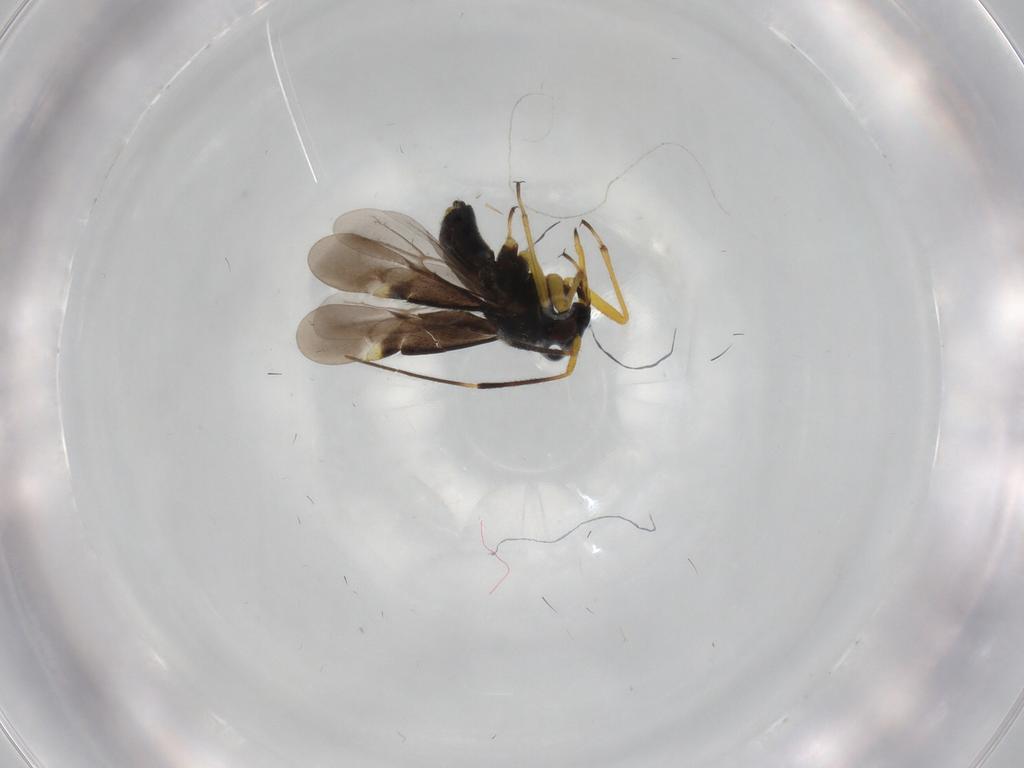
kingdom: Animalia
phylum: Arthropoda
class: Insecta
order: Hemiptera
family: Miridae
